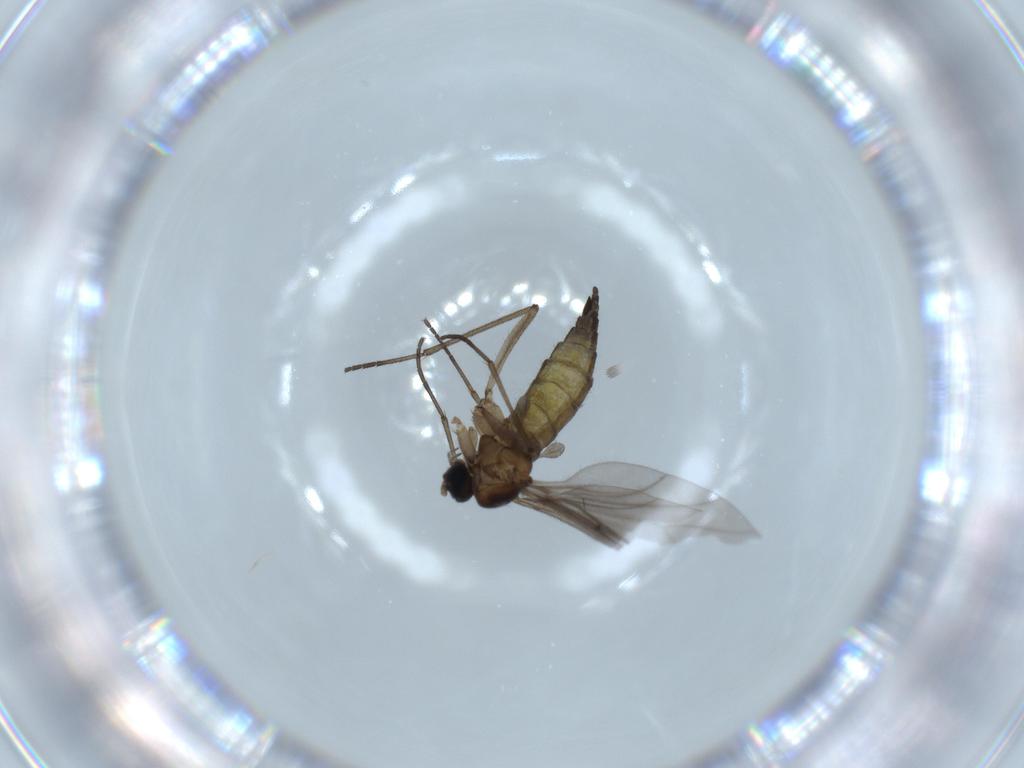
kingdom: Animalia
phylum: Arthropoda
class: Insecta
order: Diptera
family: Sciaridae
